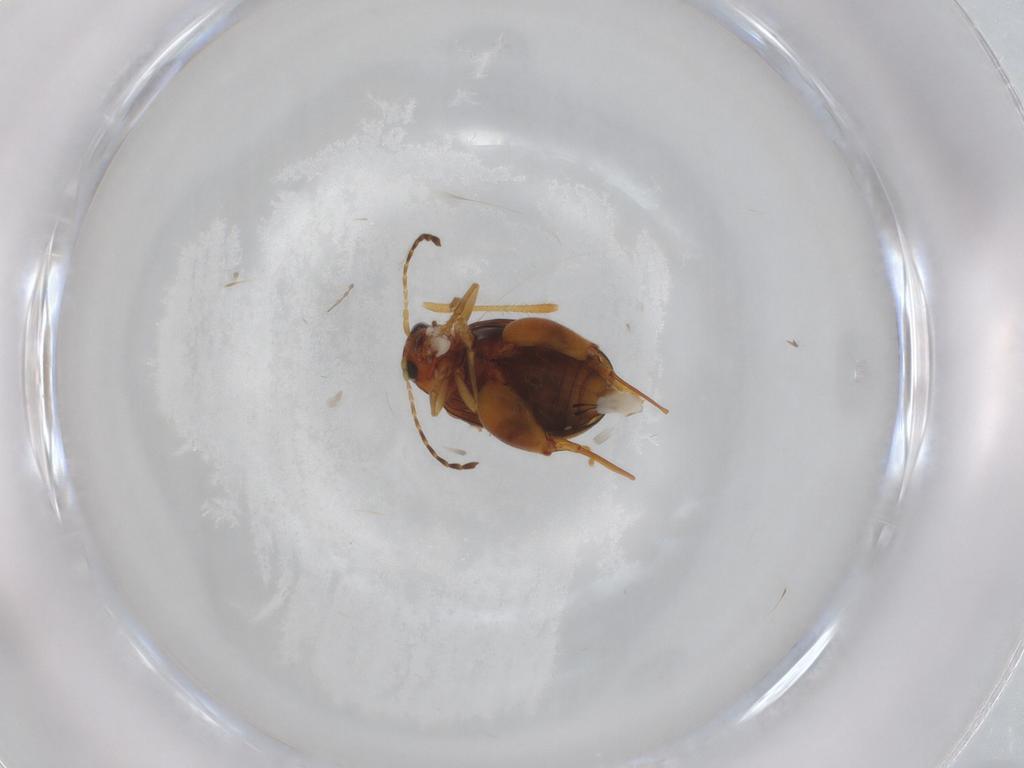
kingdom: Animalia
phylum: Arthropoda
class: Insecta
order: Coleoptera
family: Chrysomelidae
